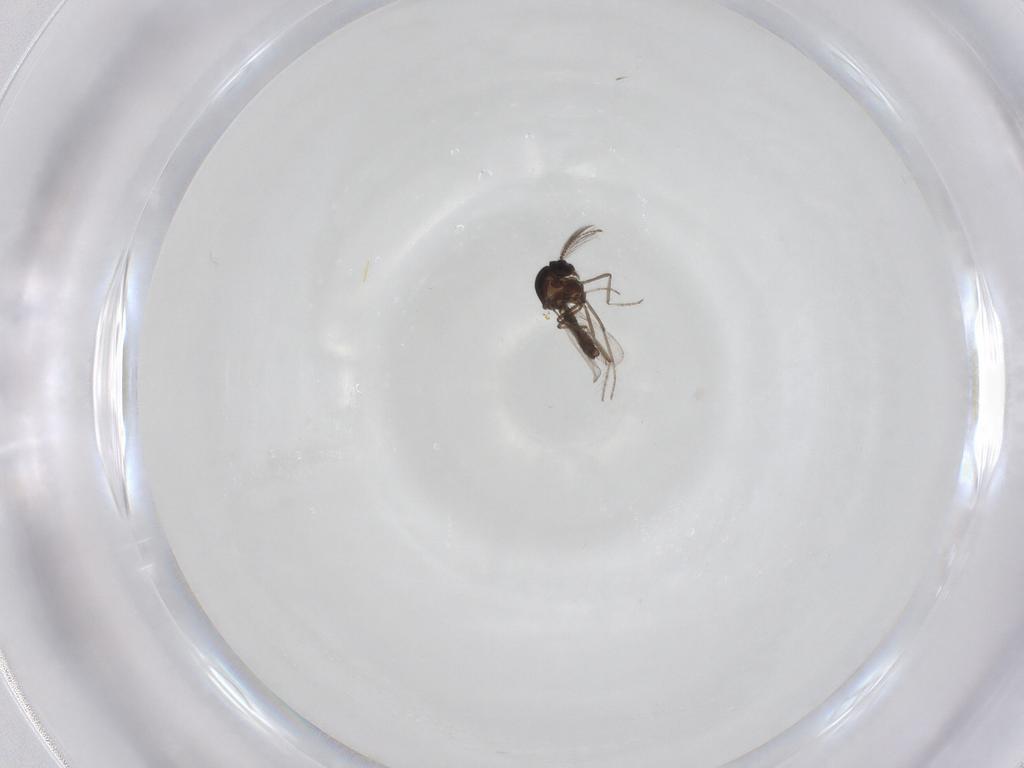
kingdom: Animalia
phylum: Arthropoda
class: Insecta
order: Diptera
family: Ceratopogonidae
